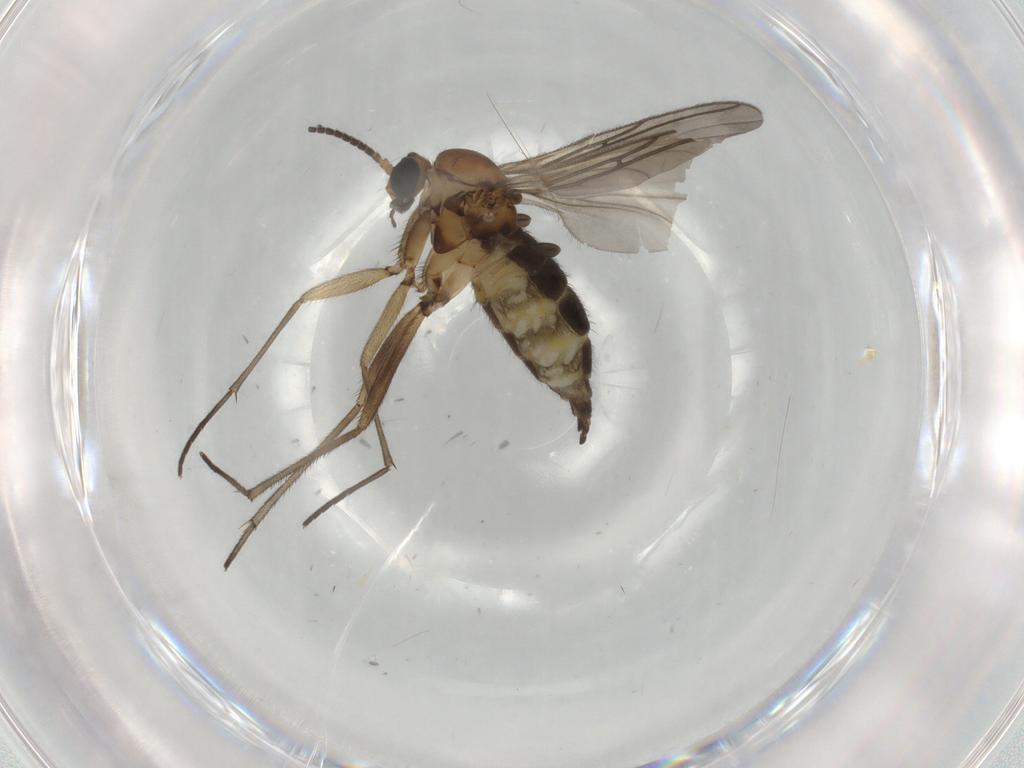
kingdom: Animalia
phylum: Arthropoda
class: Insecta
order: Diptera
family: Sciaridae
